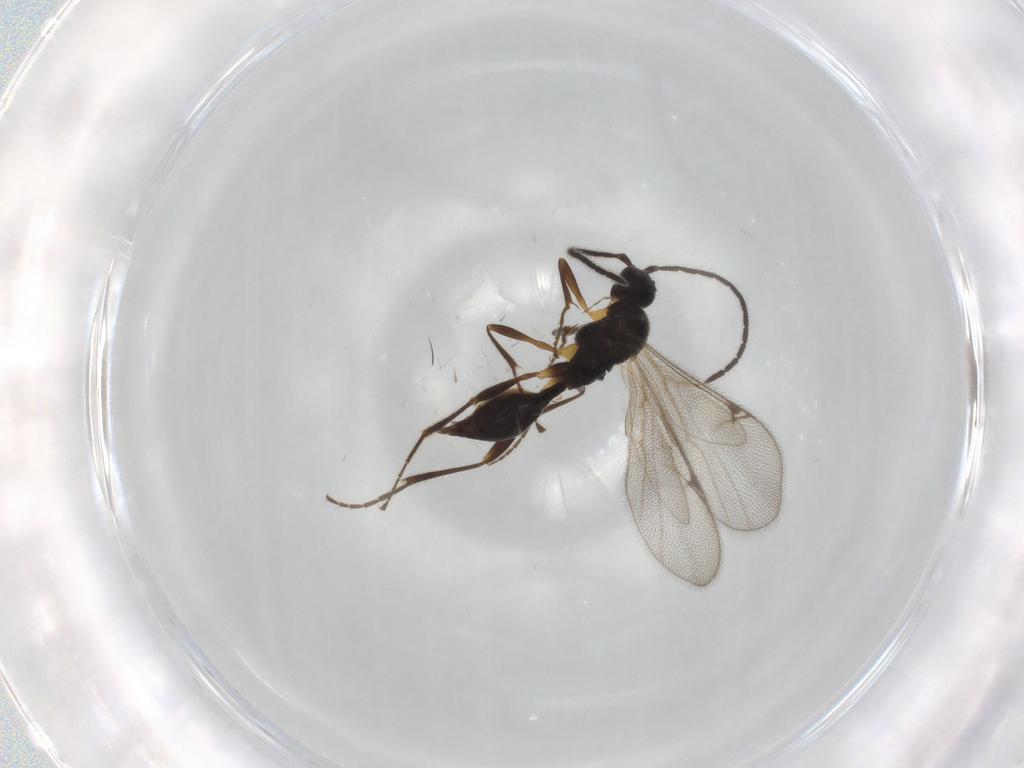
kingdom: Animalia
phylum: Arthropoda
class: Insecta
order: Hymenoptera
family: Proctotrupidae
